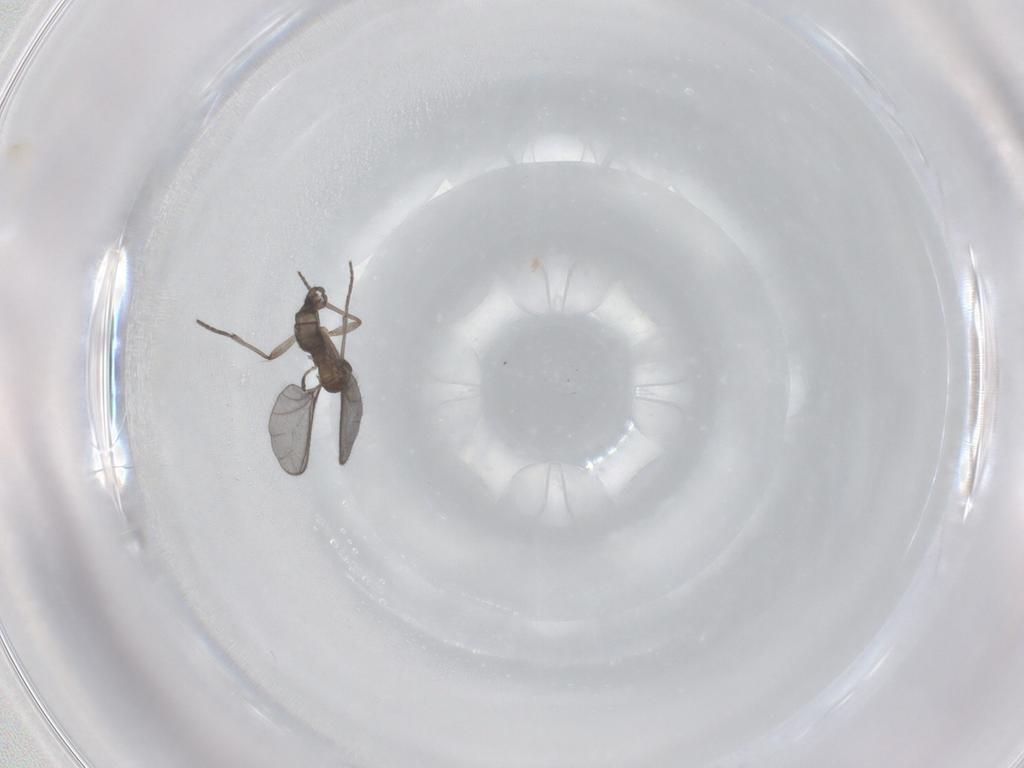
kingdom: Animalia
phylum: Arthropoda
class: Insecta
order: Diptera
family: Sciaridae
